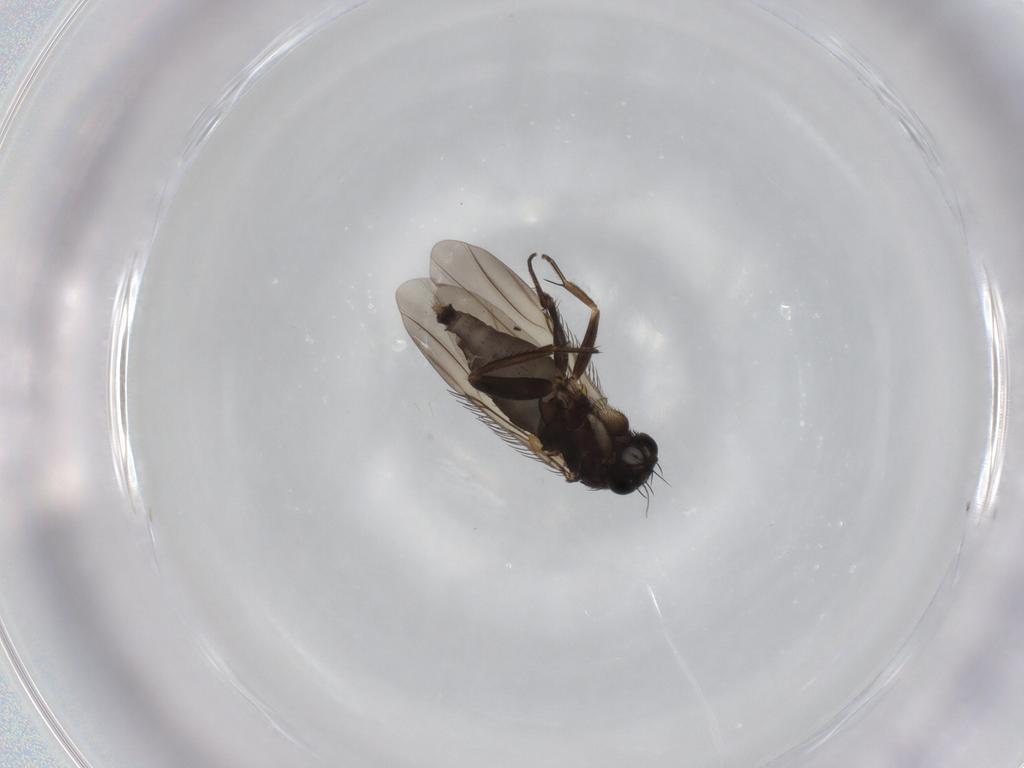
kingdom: Animalia
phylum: Arthropoda
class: Insecta
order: Diptera
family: Phoridae
